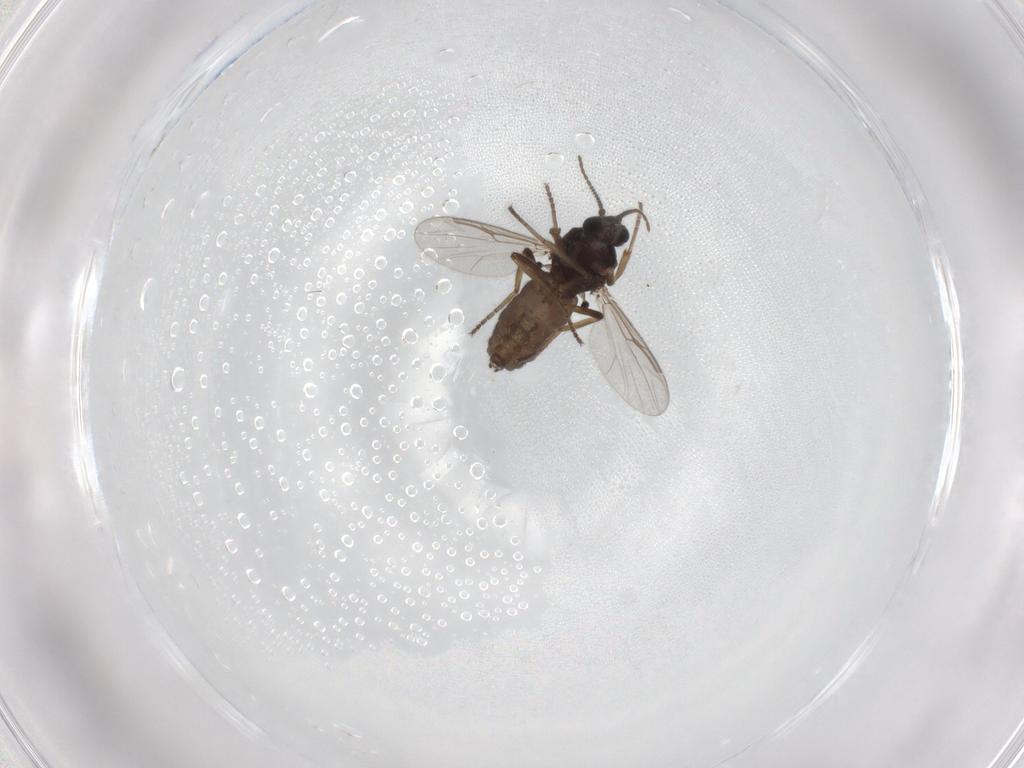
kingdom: Animalia
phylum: Arthropoda
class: Insecta
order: Diptera
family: Ceratopogonidae
